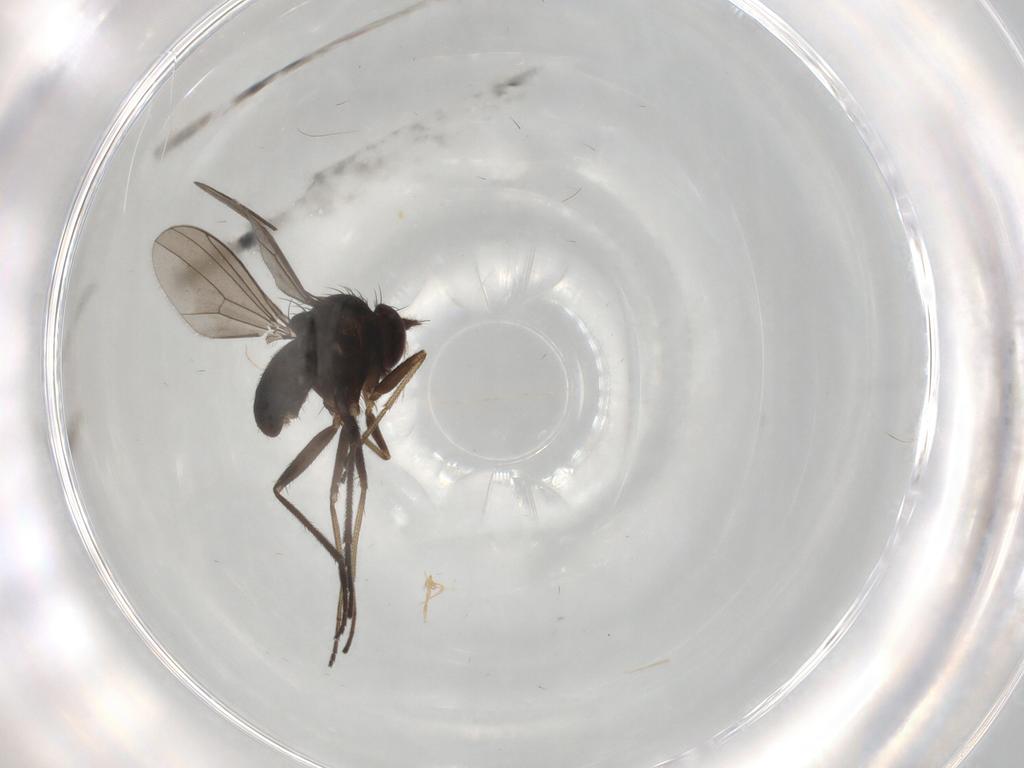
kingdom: Animalia
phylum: Arthropoda
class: Insecta
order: Diptera
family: Dolichopodidae
